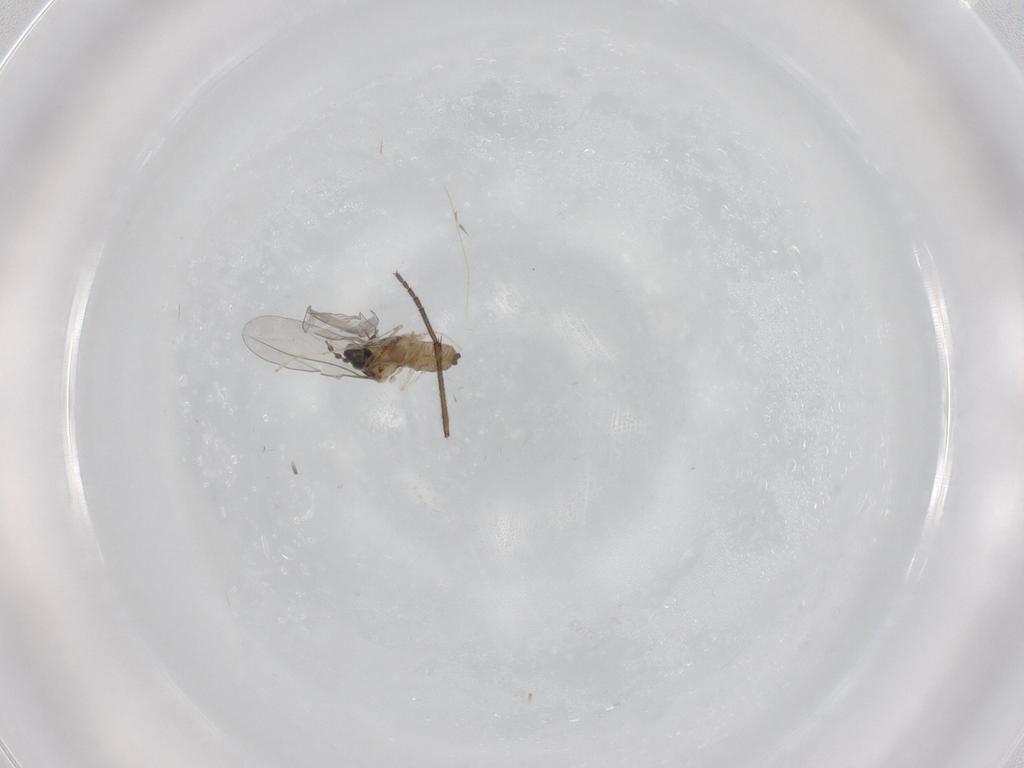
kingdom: Animalia
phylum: Arthropoda
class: Insecta
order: Diptera
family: Cecidomyiidae
